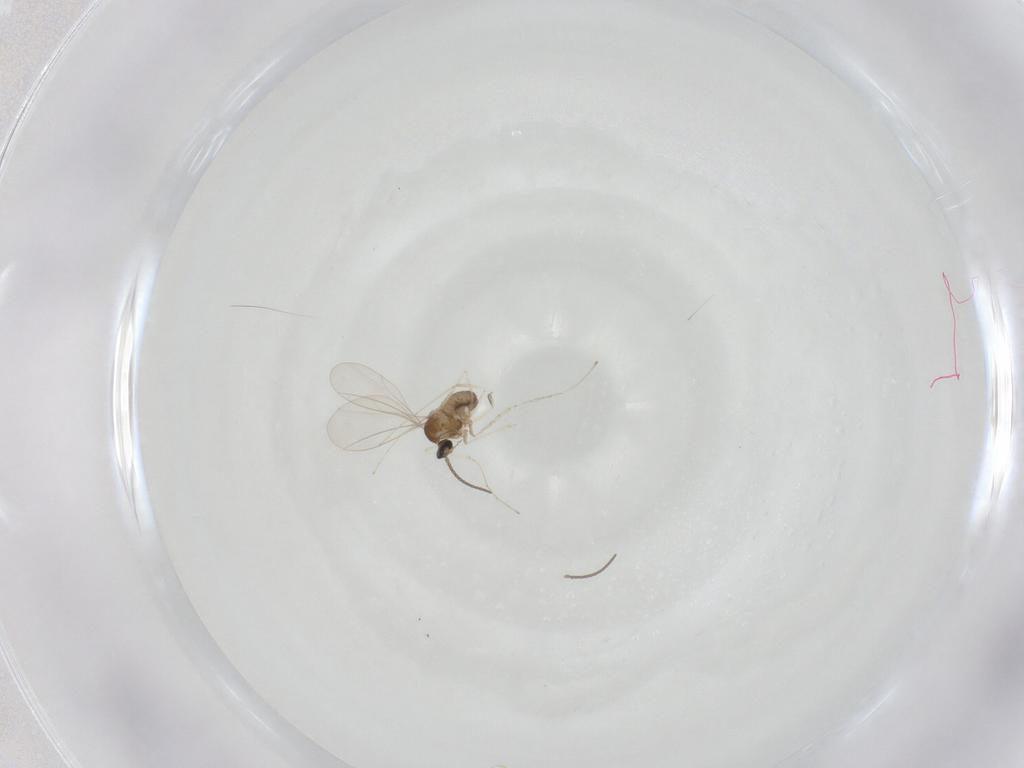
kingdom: Animalia
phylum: Arthropoda
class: Insecta
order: Diptera
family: Cecidomyiidae
